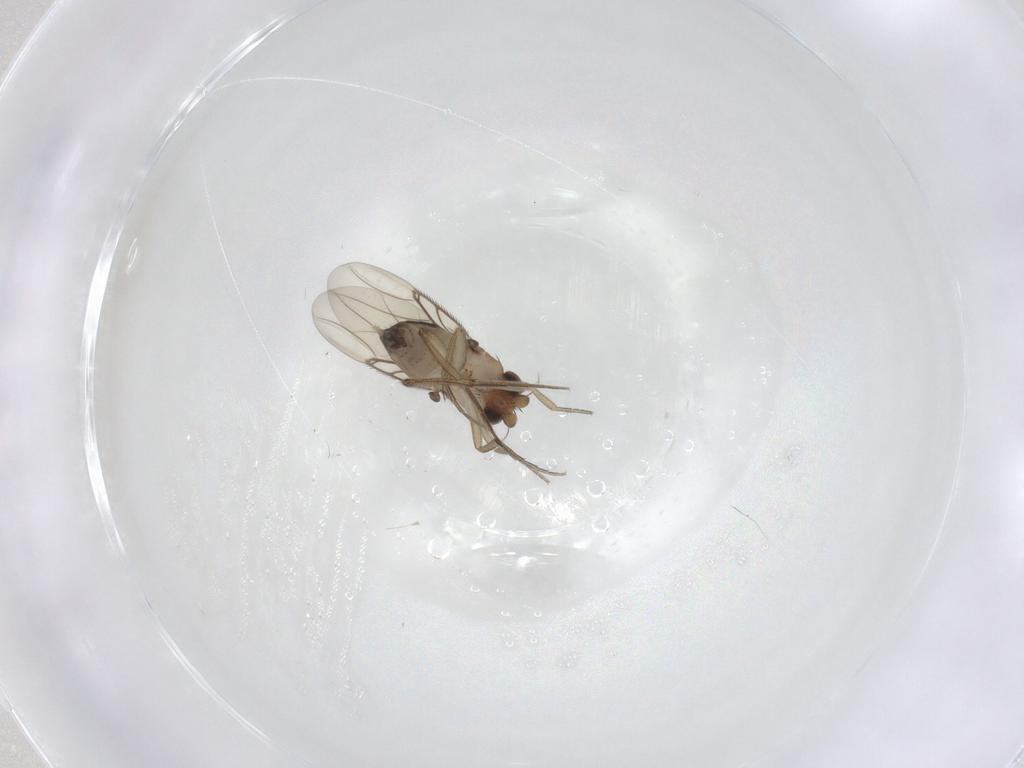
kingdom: Animalia
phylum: Arthropoda
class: Insecta
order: Diptera
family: Phoridae
